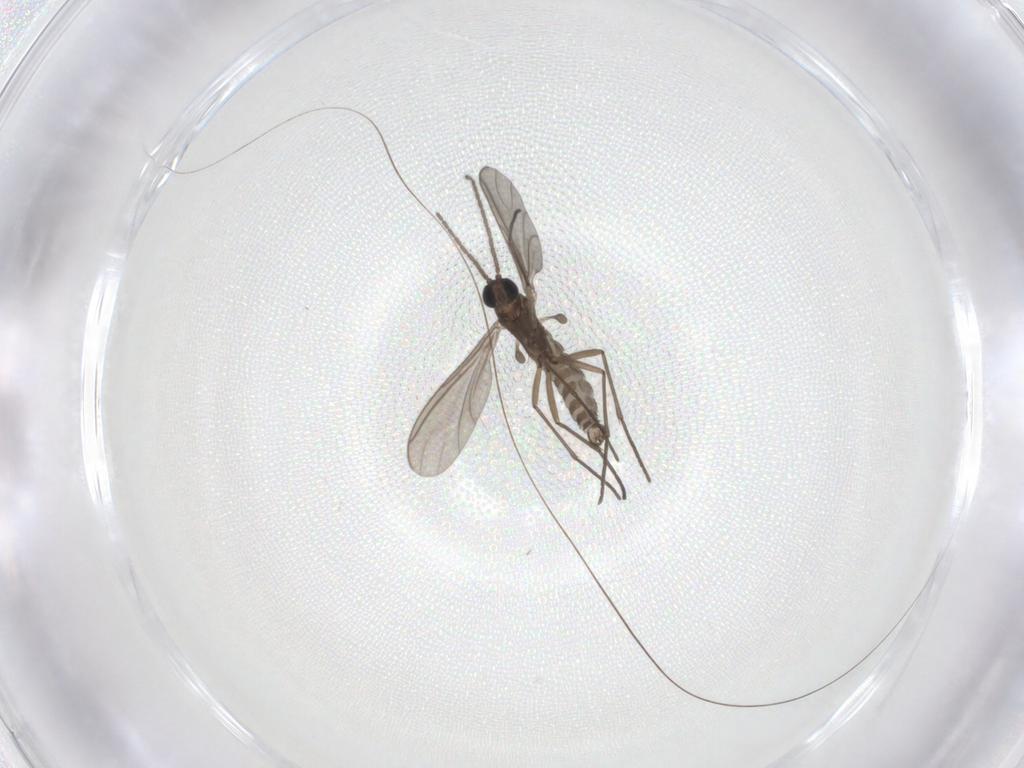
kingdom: Animalia
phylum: Arthropoda
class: Insecta
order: Diptera
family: Sciaridae
